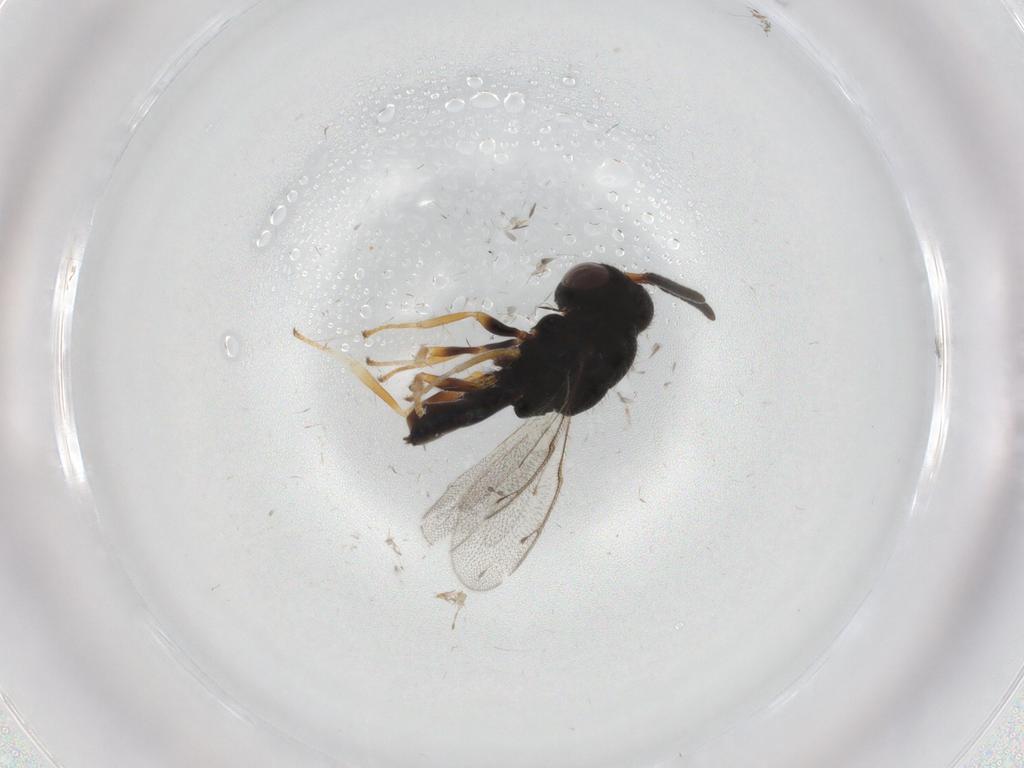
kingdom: Animalia
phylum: Arthropoda
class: Insecta
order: Hymenoptera
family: Pteromalidae
